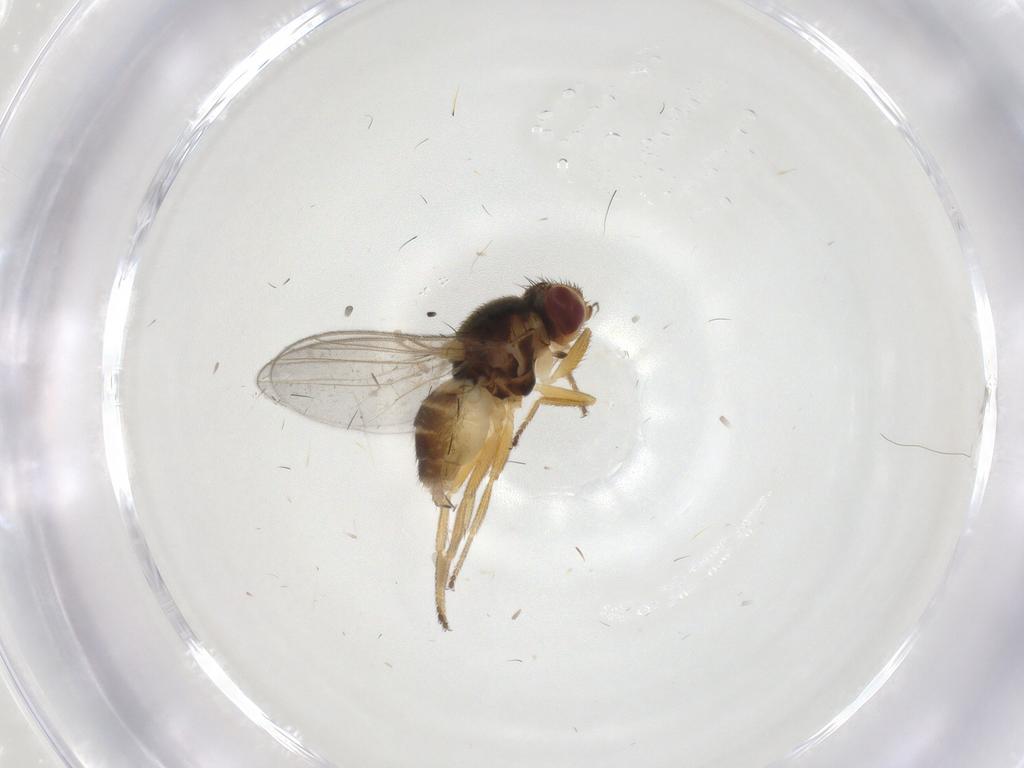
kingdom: Animalia
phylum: Arthropoda
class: Insecta
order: Diptera
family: Chloropidae
